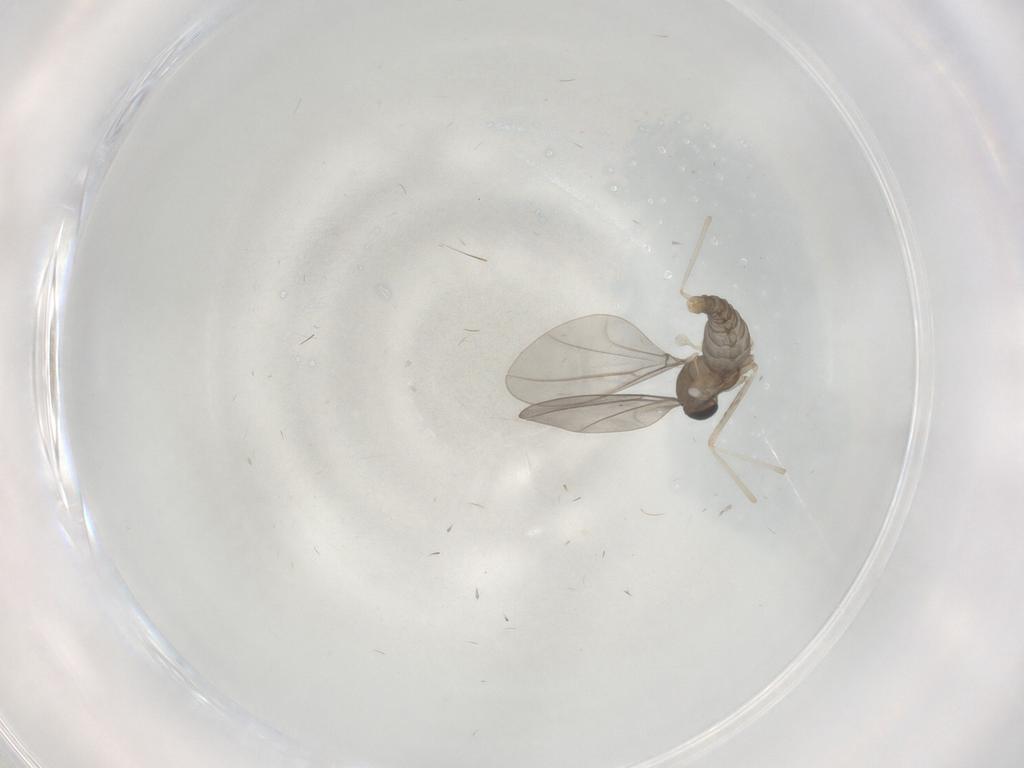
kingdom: Animalia
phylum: Arthropoda
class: Insecta
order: Diptera
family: Cecidomyiidae
